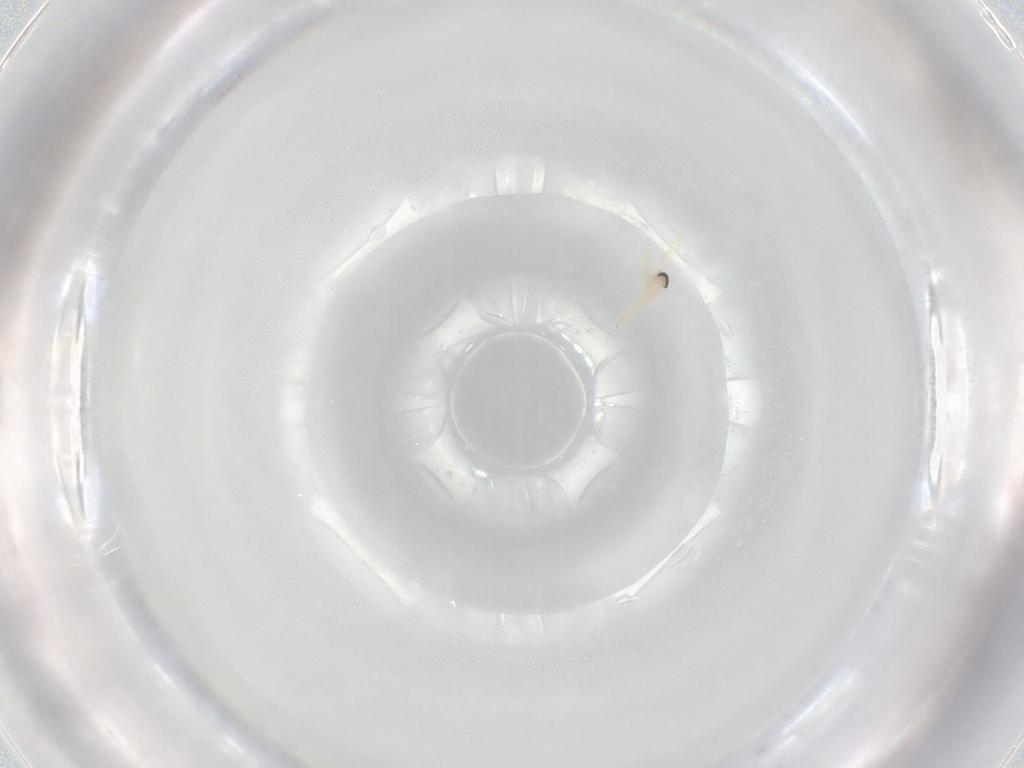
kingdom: Animalia
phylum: Arthropoda
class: Insecta
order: Diptera
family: Cecidomyiidae
